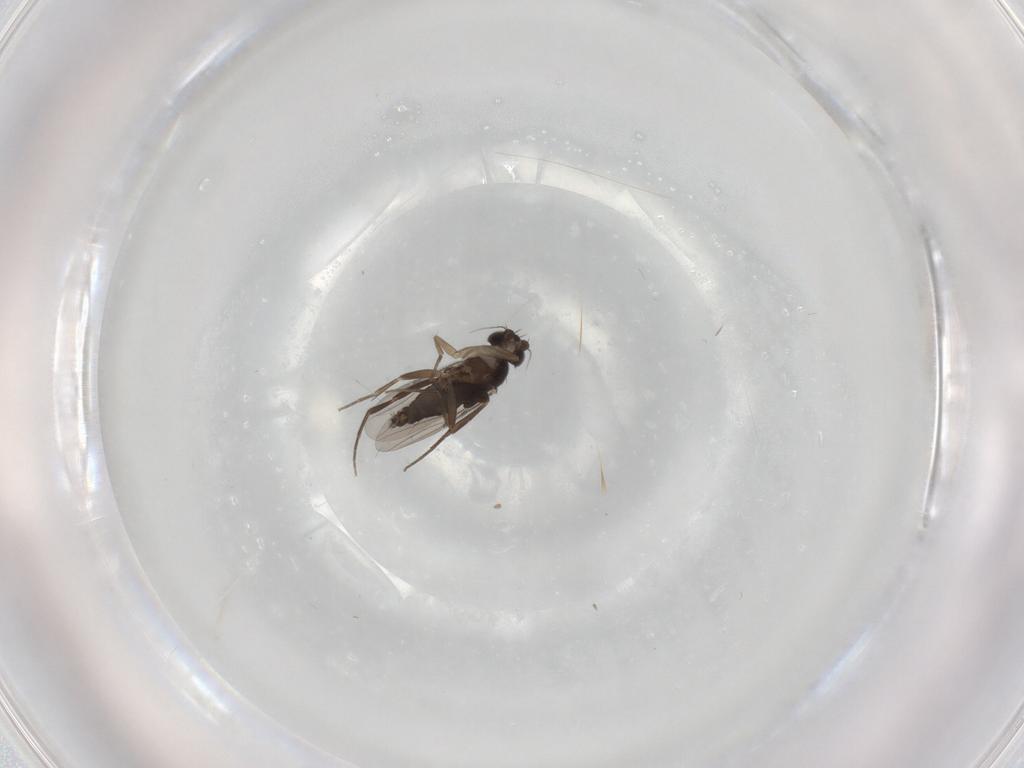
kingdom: Animalia
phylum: Arthropoda
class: Insecta
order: Diptera
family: Phoridae
